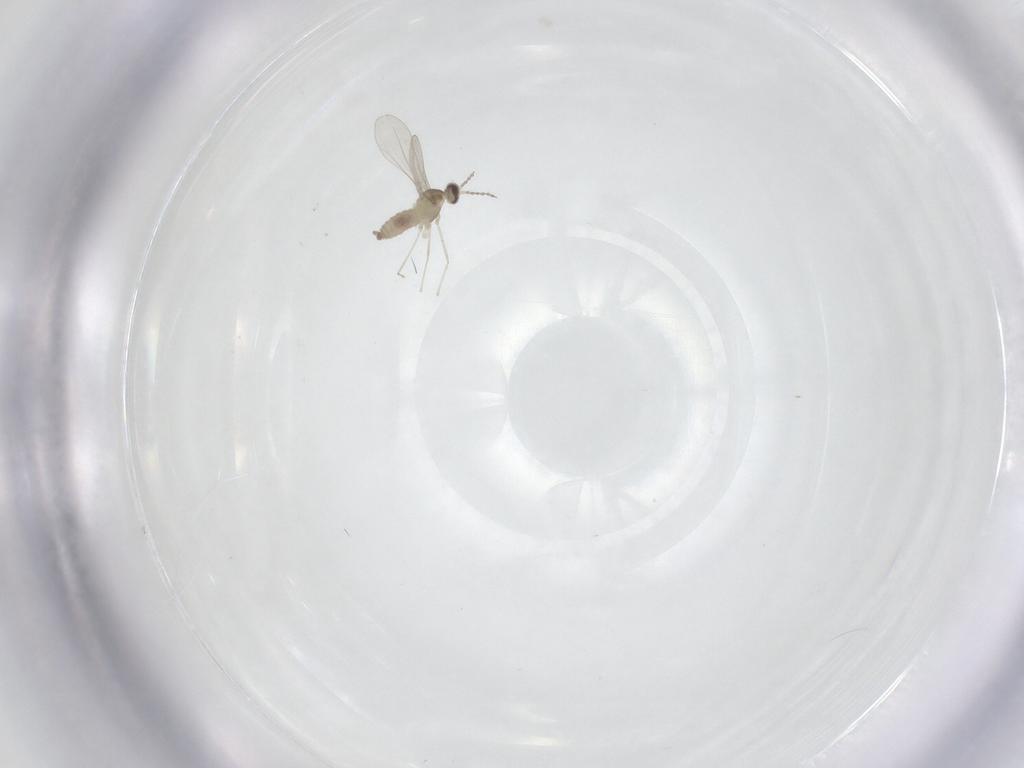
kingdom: Animalia
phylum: Arthropoda
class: Insecta
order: Diptera
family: Cecidomyiidae
